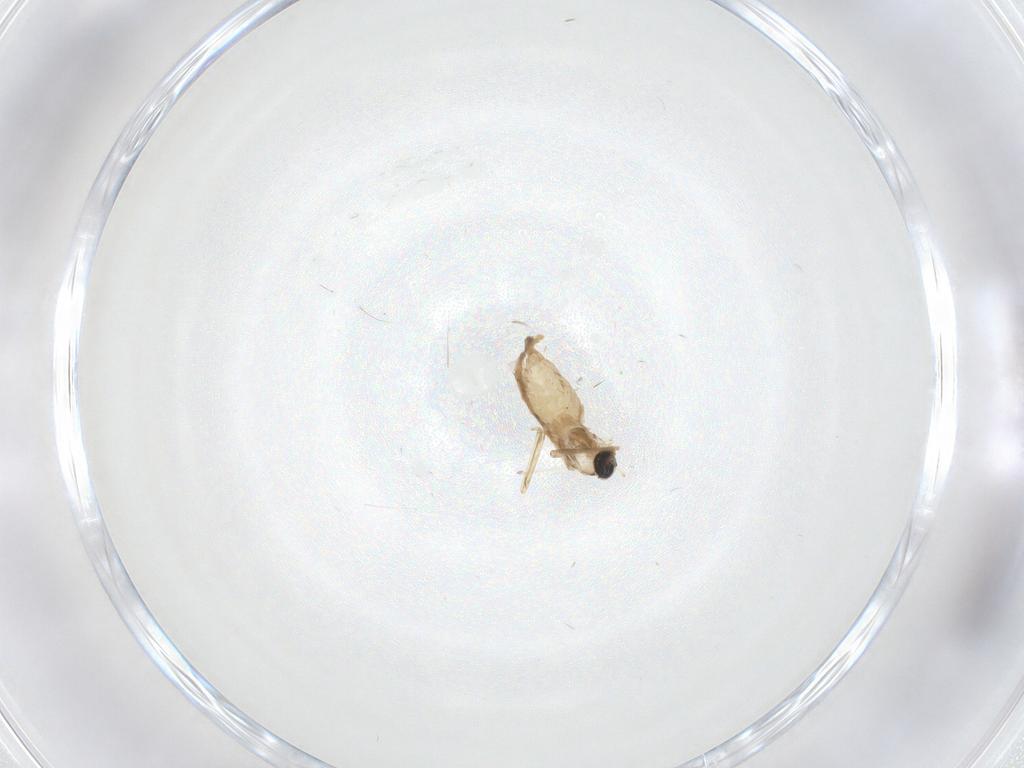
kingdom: Animalia
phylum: Arthropoda
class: Insecta
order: Diptera
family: Cecidomyiidae
